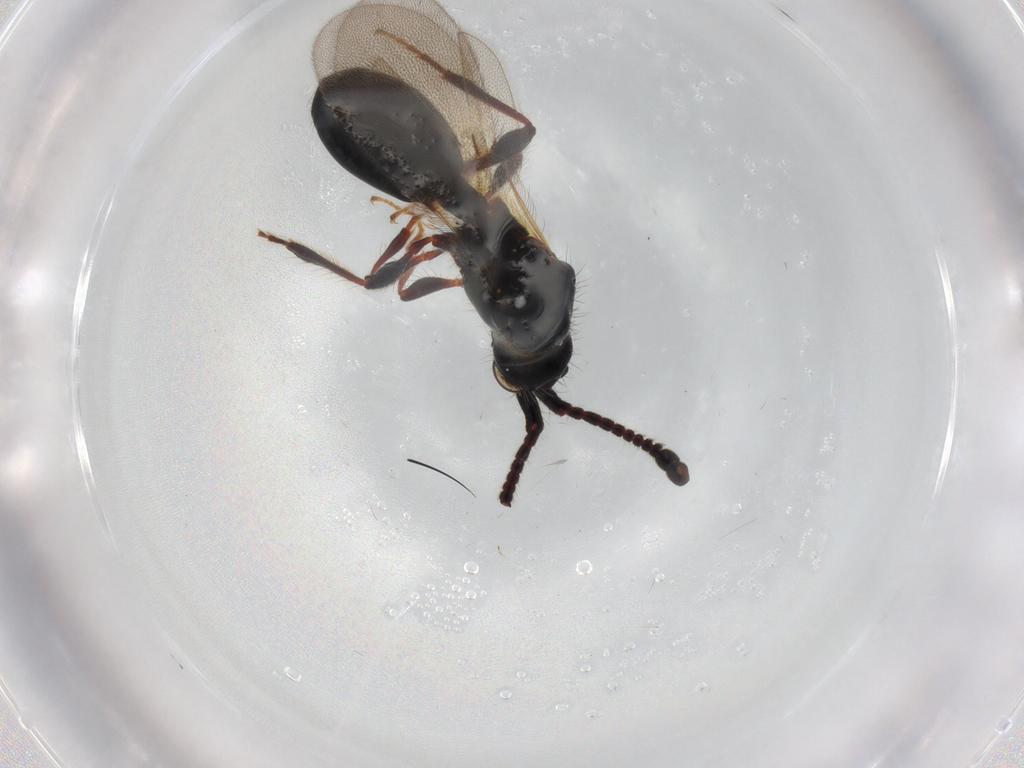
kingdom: Animalia
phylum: Arthropoda
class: Insecta
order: Hymenoptera
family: Diapriidae
